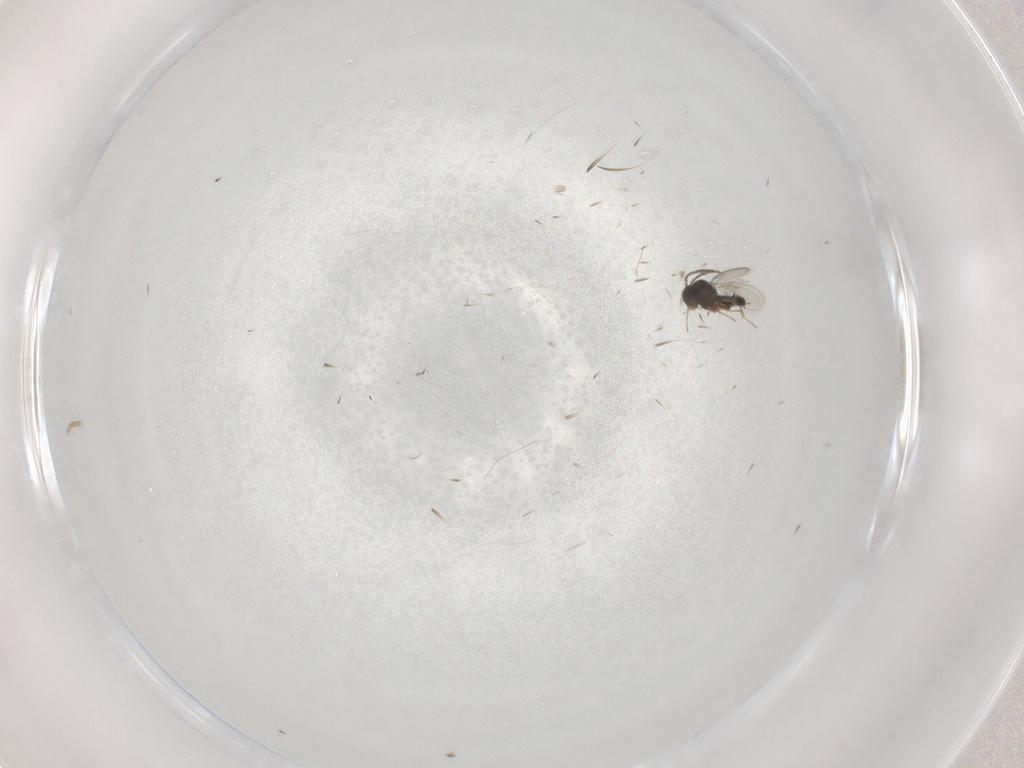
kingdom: Animalia
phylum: Arthropoda
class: Insecta
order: Hymenoptera
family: Scelionidae
